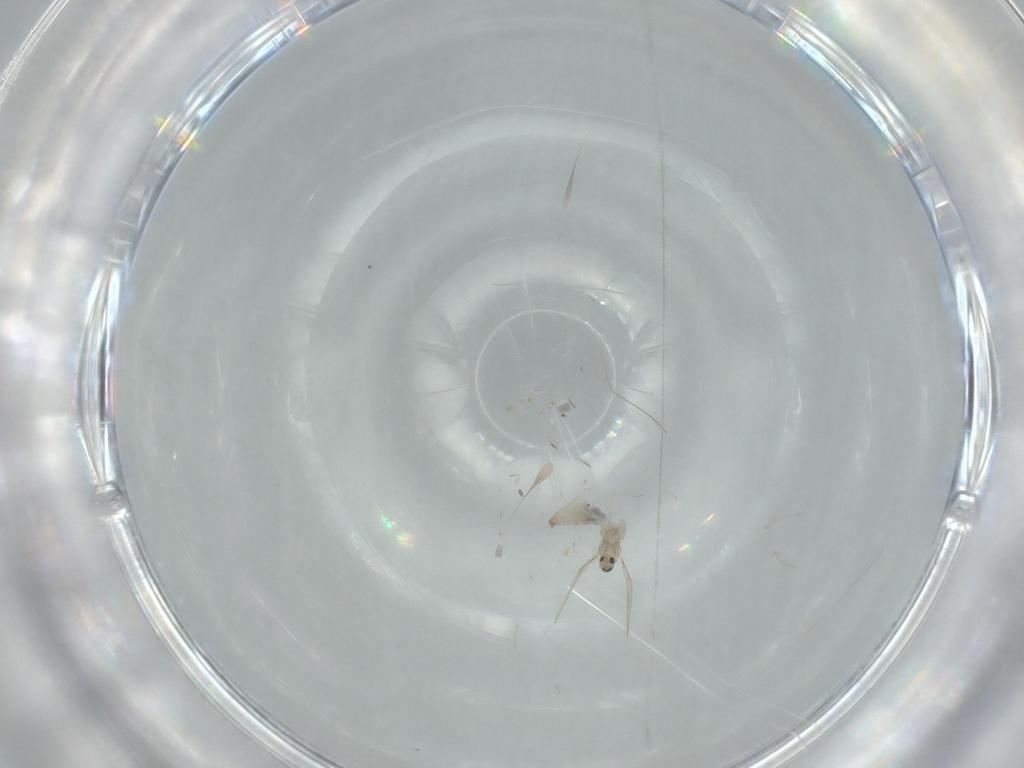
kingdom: Animalia
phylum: Arthropoda
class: Insecta
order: Diptera
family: Cecidomyiidae
